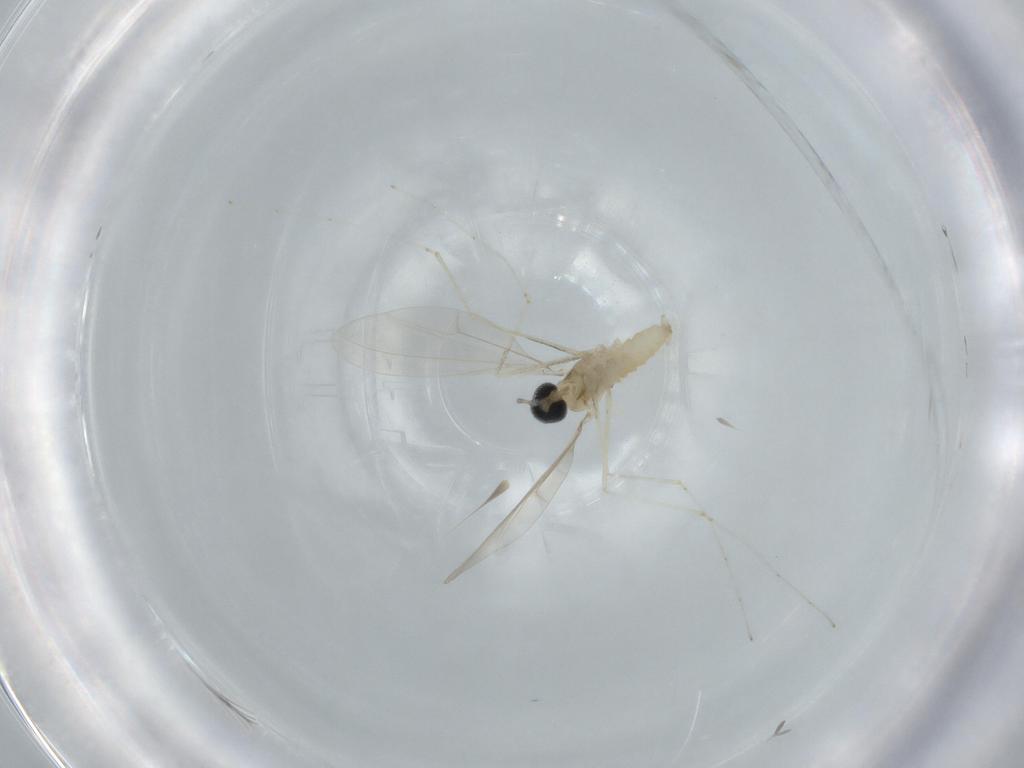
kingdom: Animalia
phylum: Arthropoda
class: Insecta
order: Diptera
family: Cecidomyiidae
